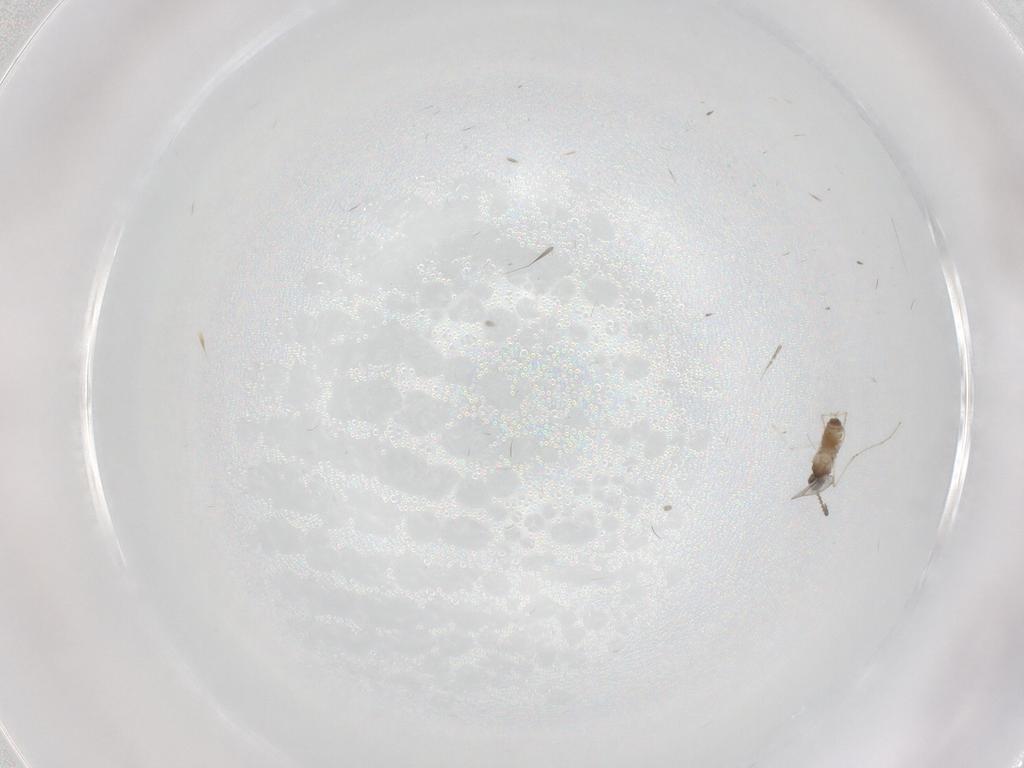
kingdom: Animalia
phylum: Arthropoda
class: Insecta
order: Diptera
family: Cecidomyiidae
